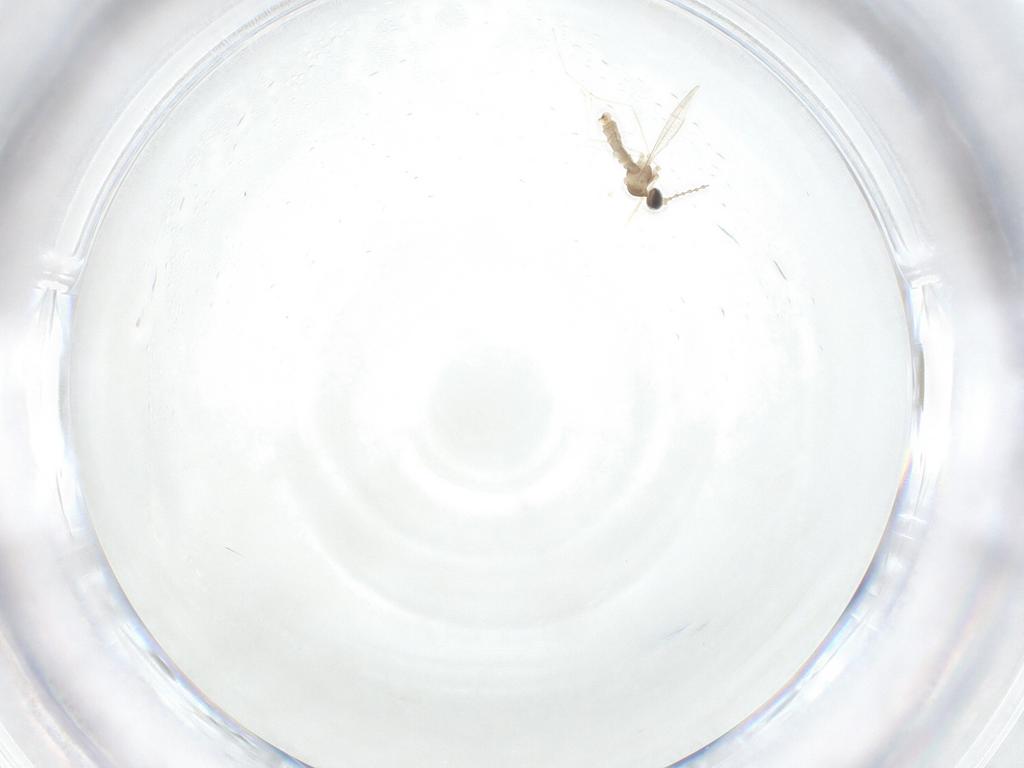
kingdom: Animalia
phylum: Arthropoda
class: Insecta
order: Diptera
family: Cecidomyiidae
